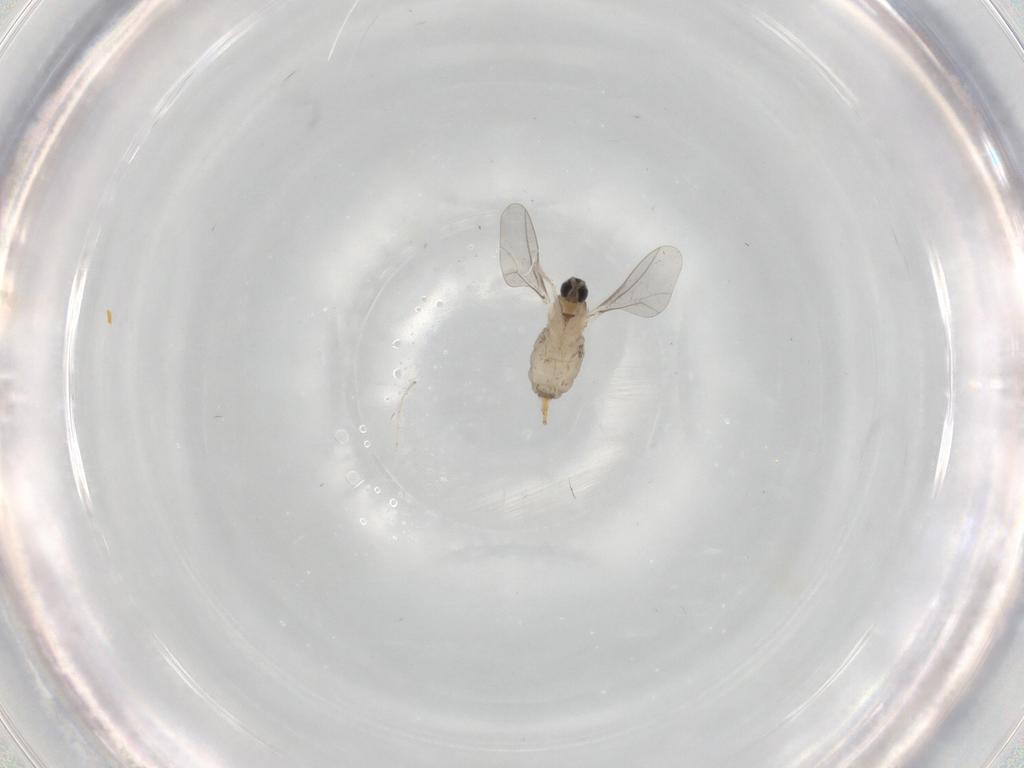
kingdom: Animalia
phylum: Arthropoda
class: Insecta
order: Diptera
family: Cecidomyiidae
